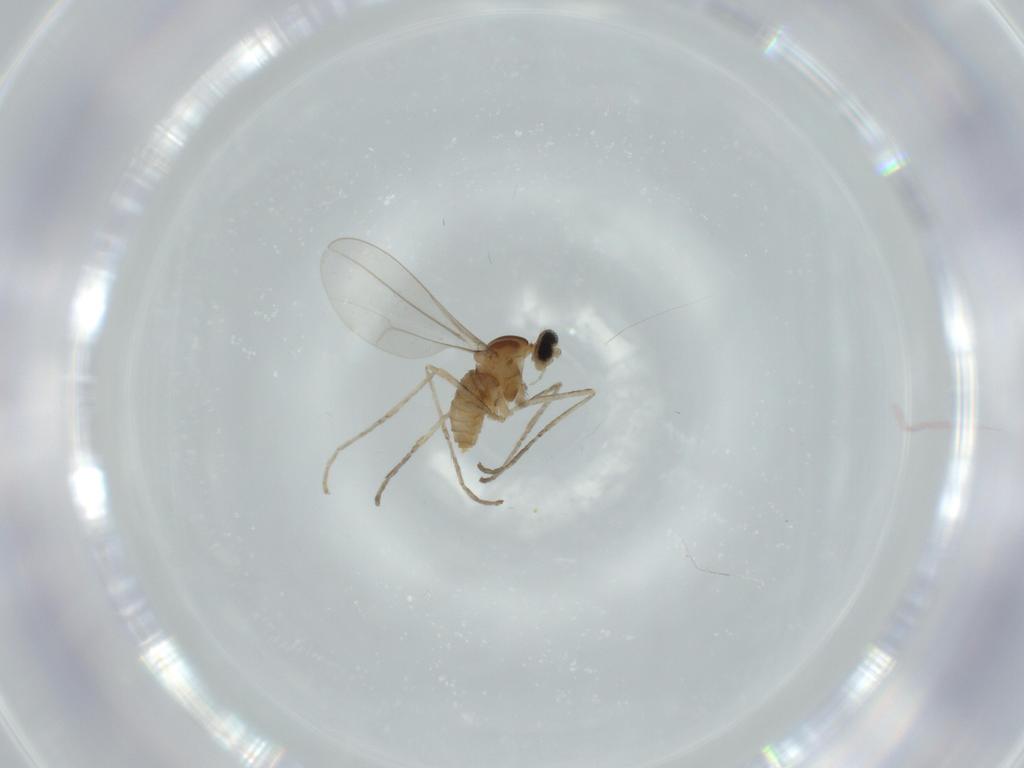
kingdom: Animalia
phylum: Arthropoda
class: Insecta
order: Diptera
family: Cecidomyiidae
